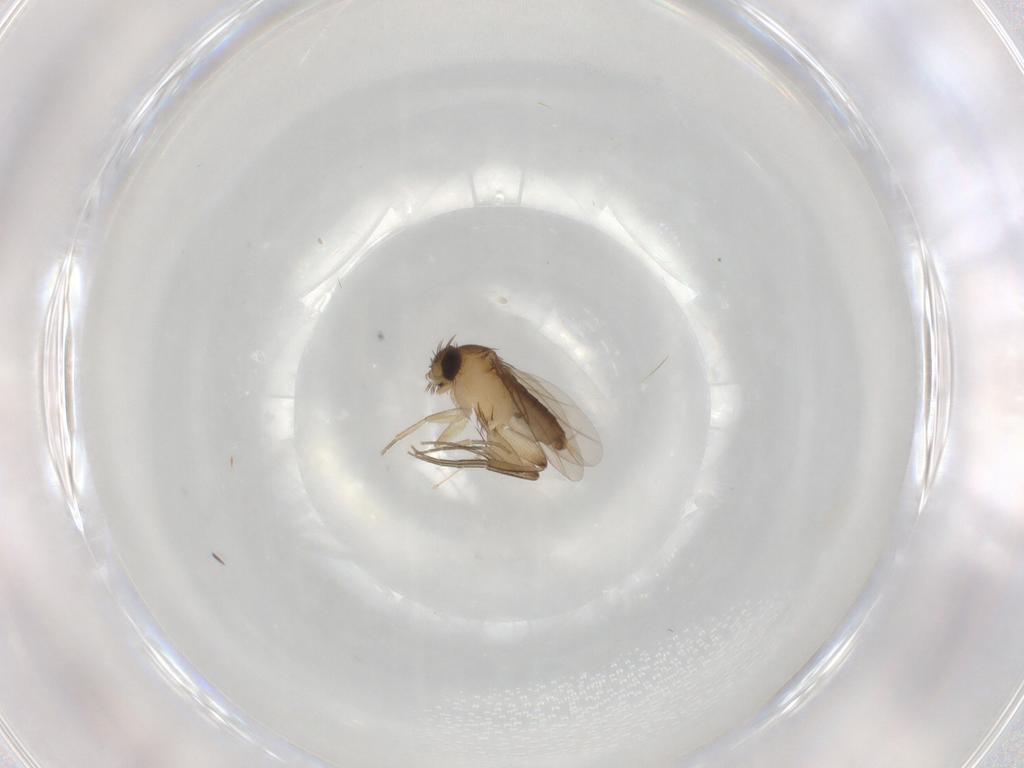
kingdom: Animalia
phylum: Arthropoda
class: Insecta
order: Diptera
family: Phoridae
